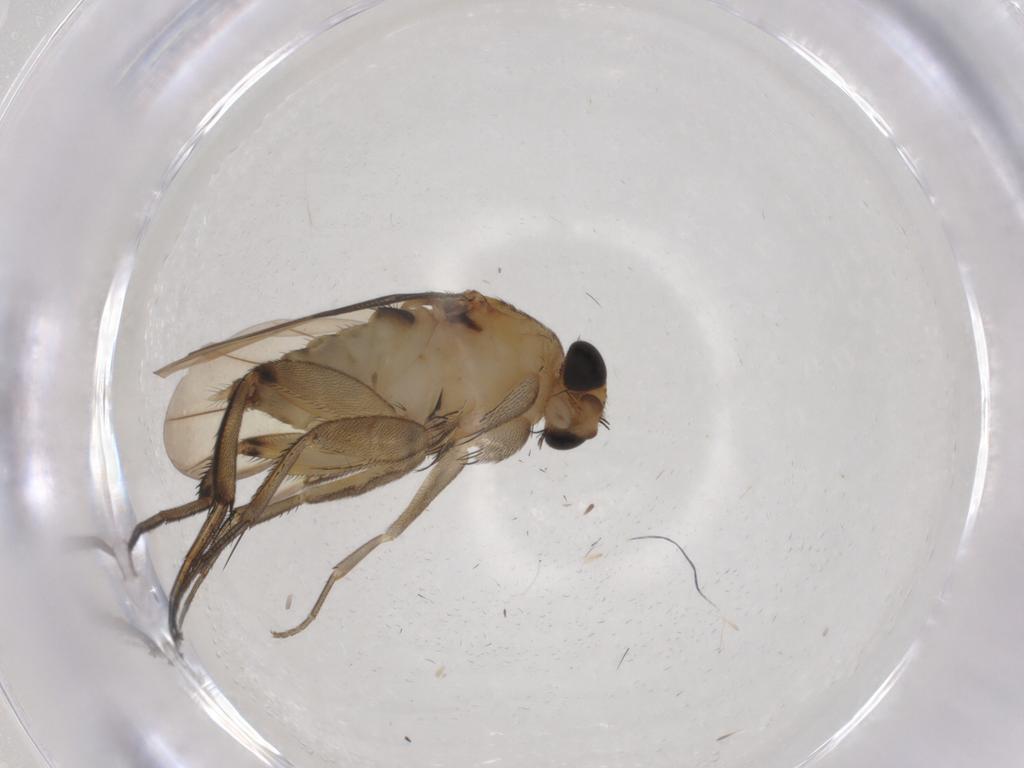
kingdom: Animalia
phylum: Arthropoda
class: Insecta
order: Diptera
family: Phoridae
